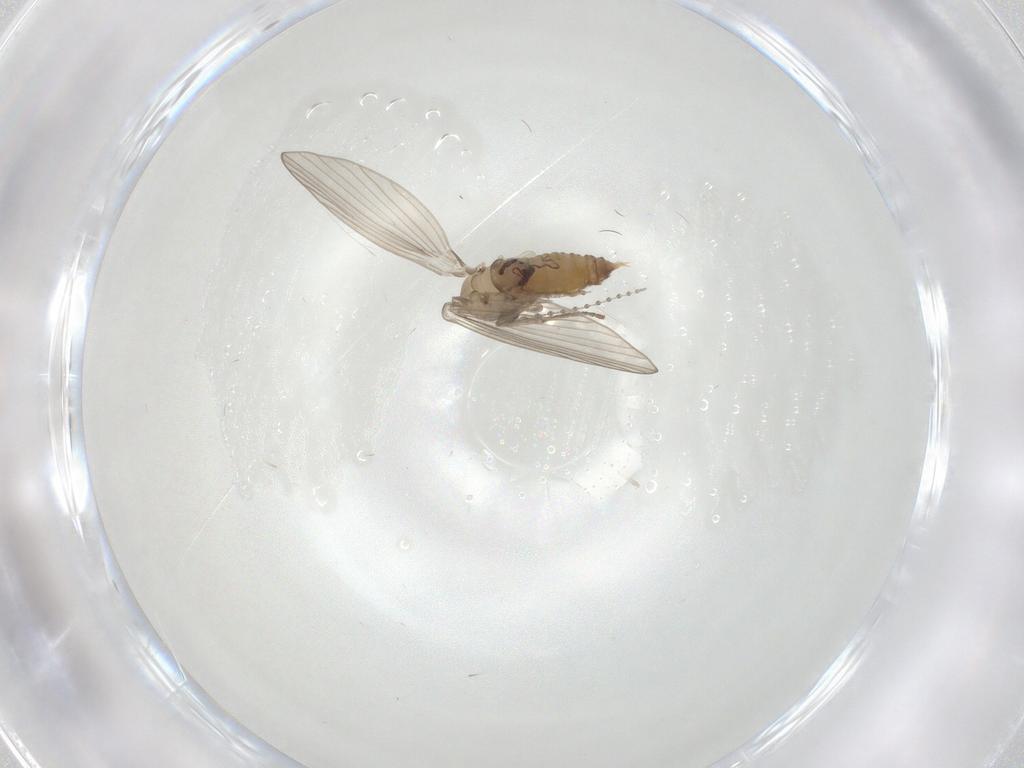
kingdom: Animalia
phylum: Arthropoda
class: Insecta
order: Diptera
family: Psychodidae
